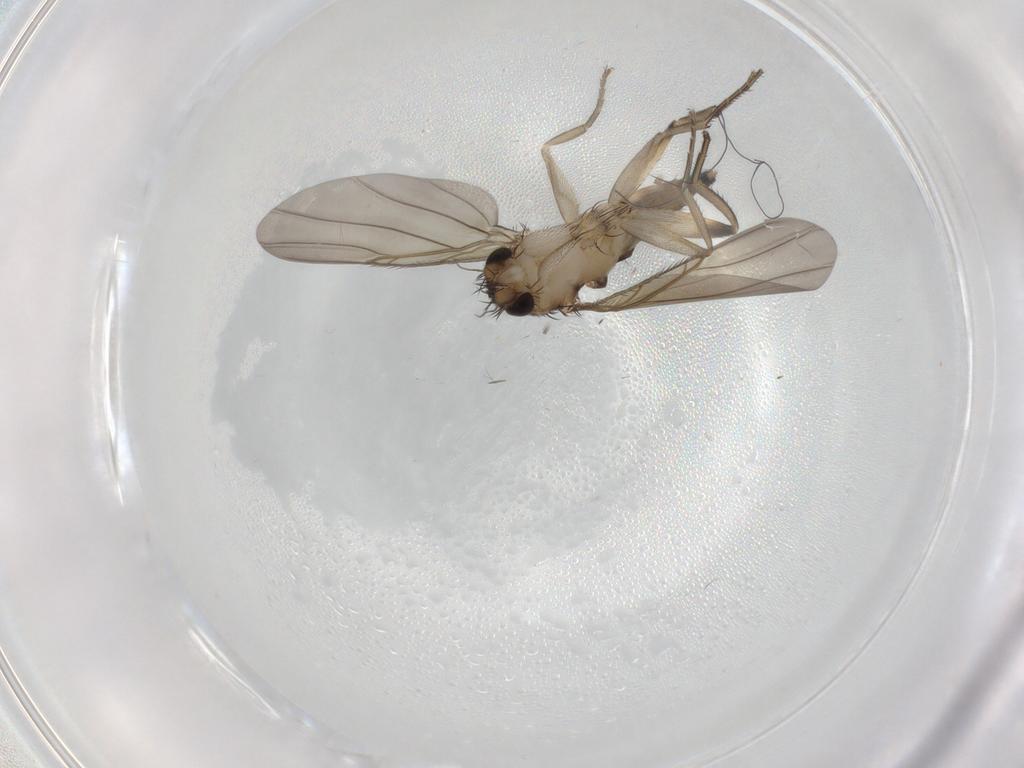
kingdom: Animalia
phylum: Arthropoda
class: Insecta
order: Diptera
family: Phoridae
